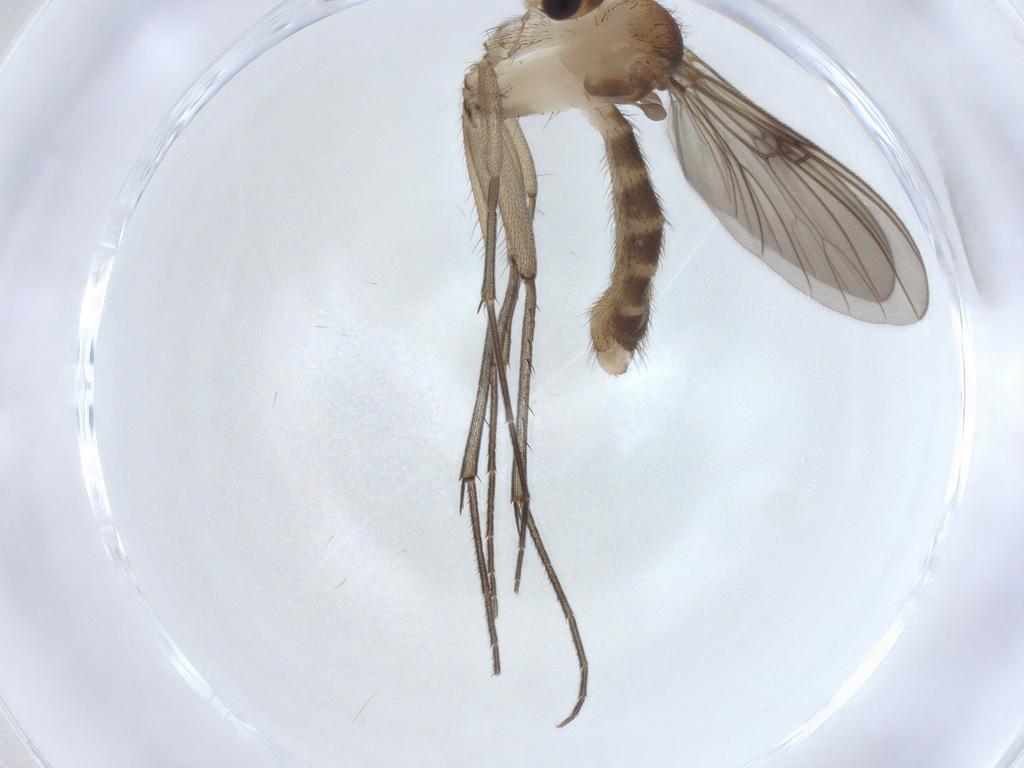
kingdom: Animalia
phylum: Arthropoda
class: Insecta
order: Diptera
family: Mycetophilidae
